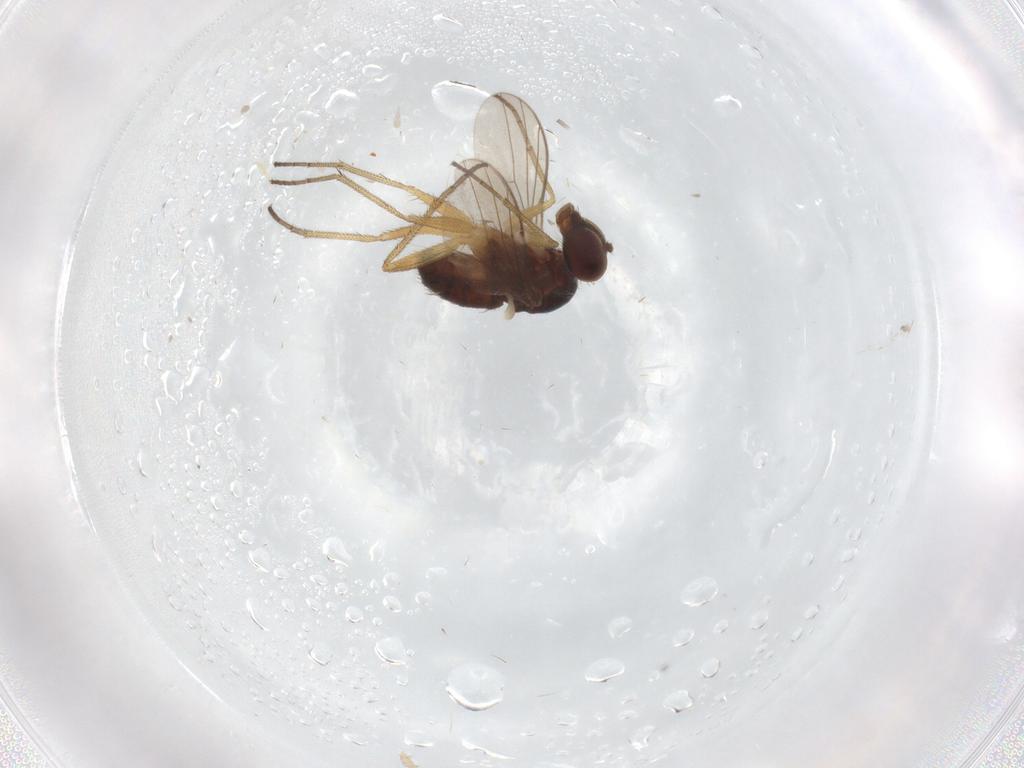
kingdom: Animalia
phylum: Arthropoda
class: Insecta
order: Diptera
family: Dolichopodidae
